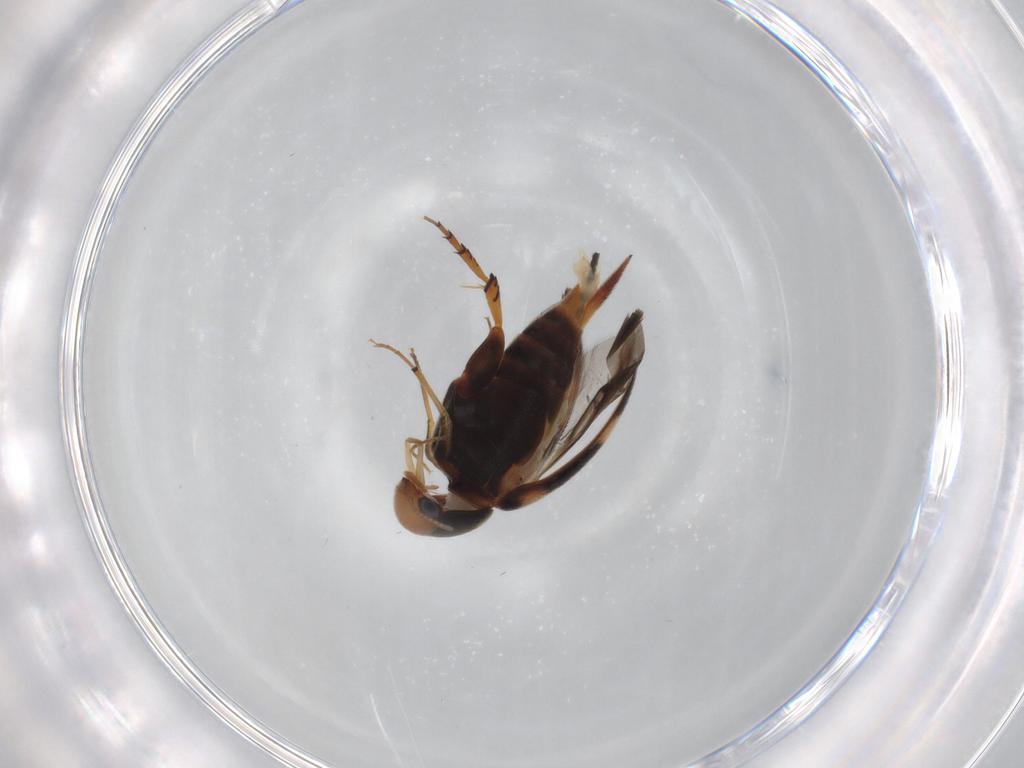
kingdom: Animalia
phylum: Arthropoda
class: Insecta
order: Coleoptera
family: Mordellidae
